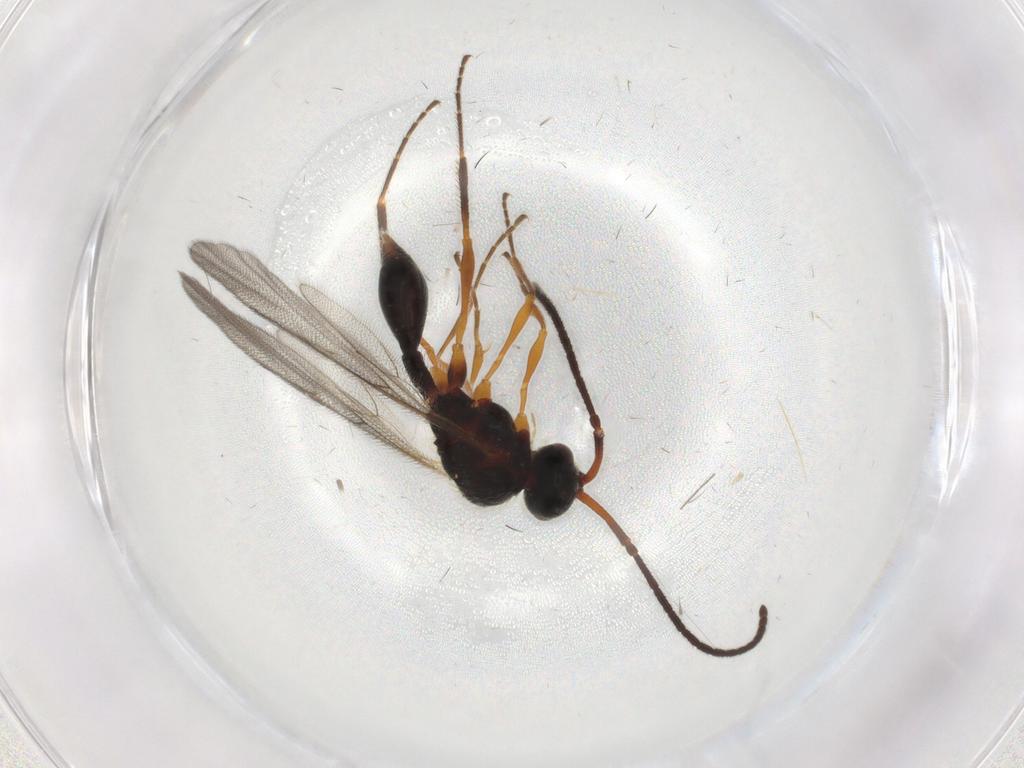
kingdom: Animalia
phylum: Arthropoda
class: Insecta
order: Hymenoptera
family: Diapriidae
